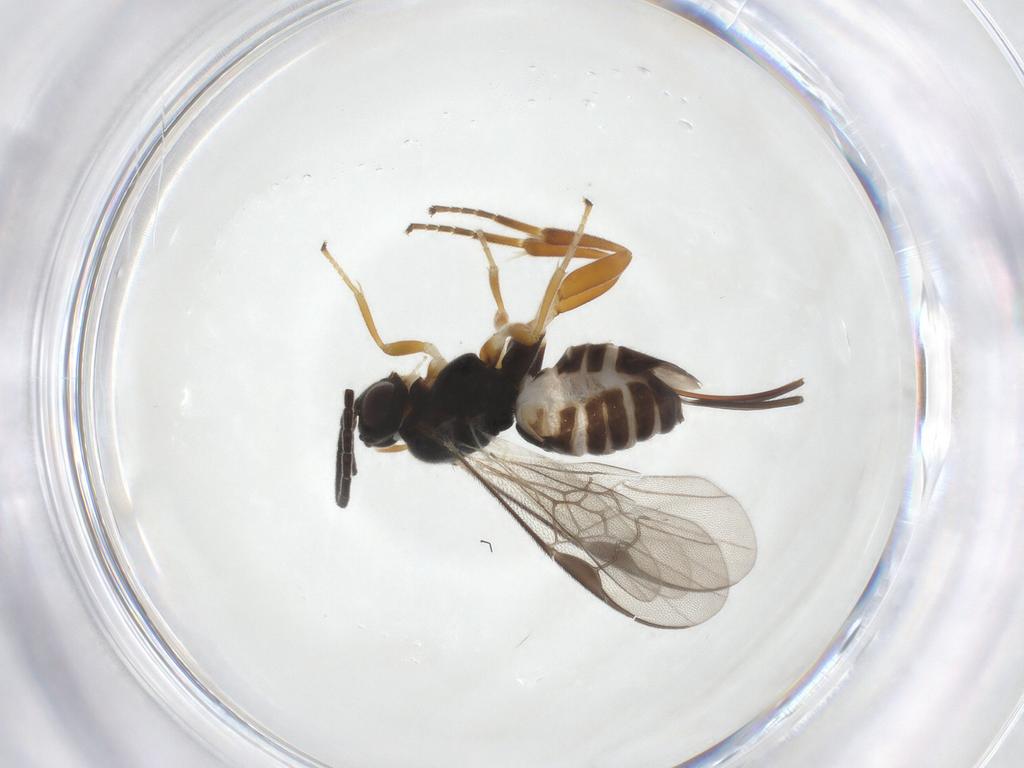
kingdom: Animalia
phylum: Arthropoda
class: Insecta
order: Hymenoptera
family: Braconidae
